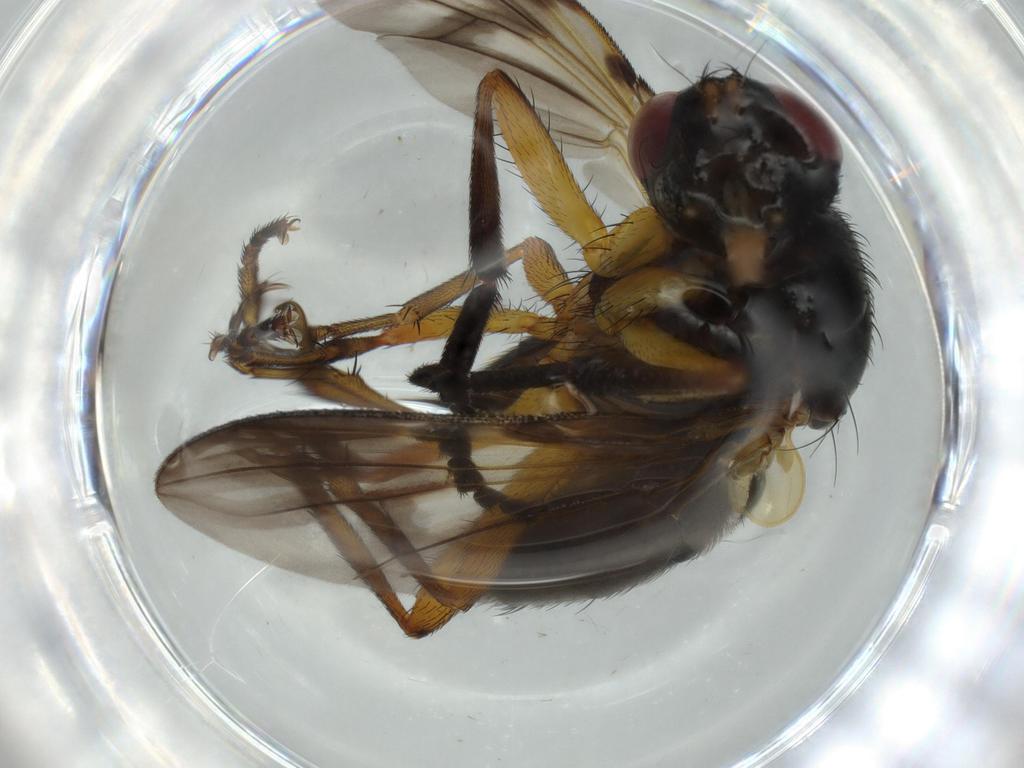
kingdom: Animalia
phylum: Arthropoda
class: Insecta
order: Diptera
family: Calliphoridae
